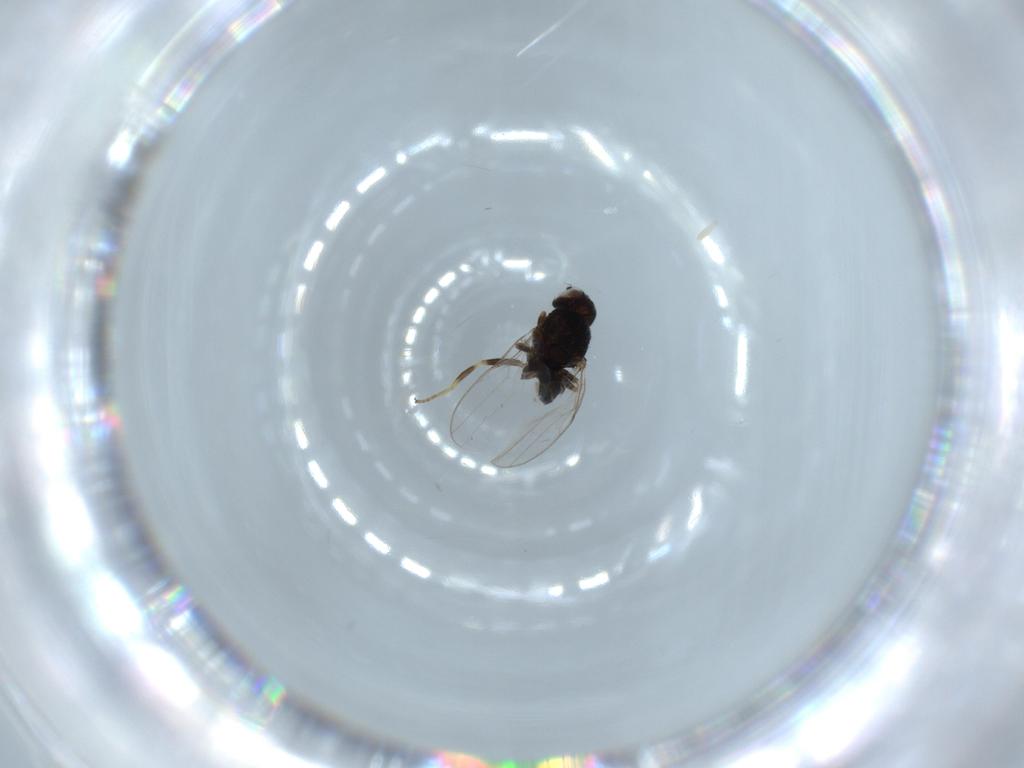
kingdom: Animalia
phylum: Arthropoda
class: Insecta
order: Diptera
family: Chloropidae
